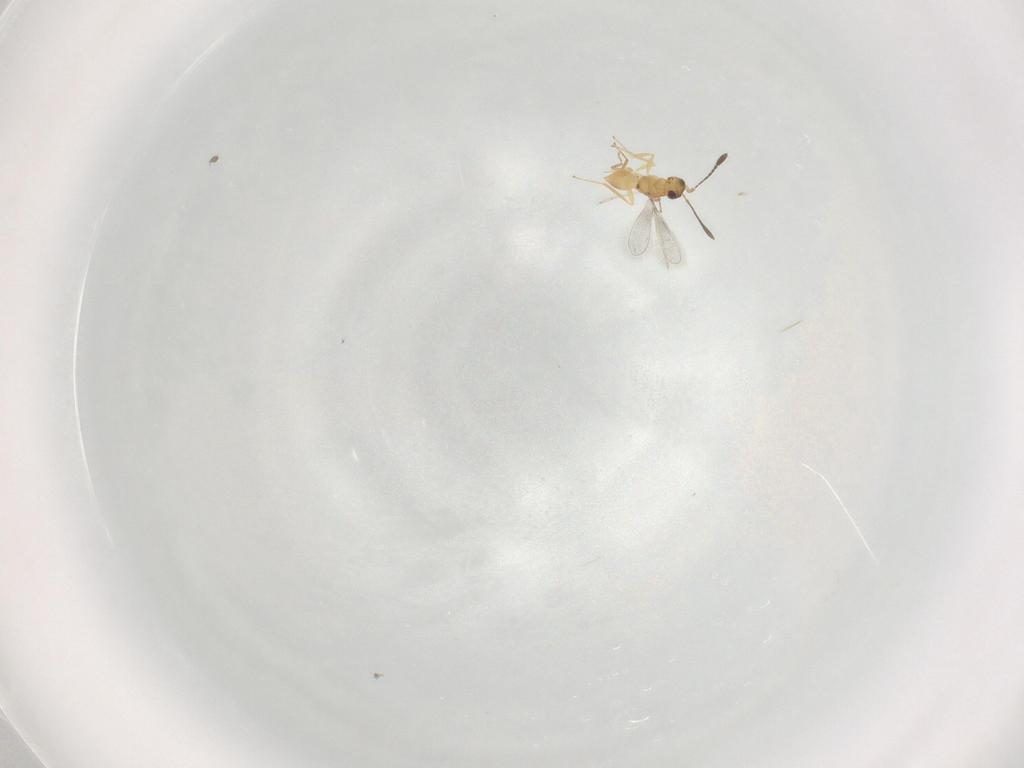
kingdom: Animalia
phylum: Arthropoda
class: Insecta
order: Hymenoptera
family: Mymaridae
